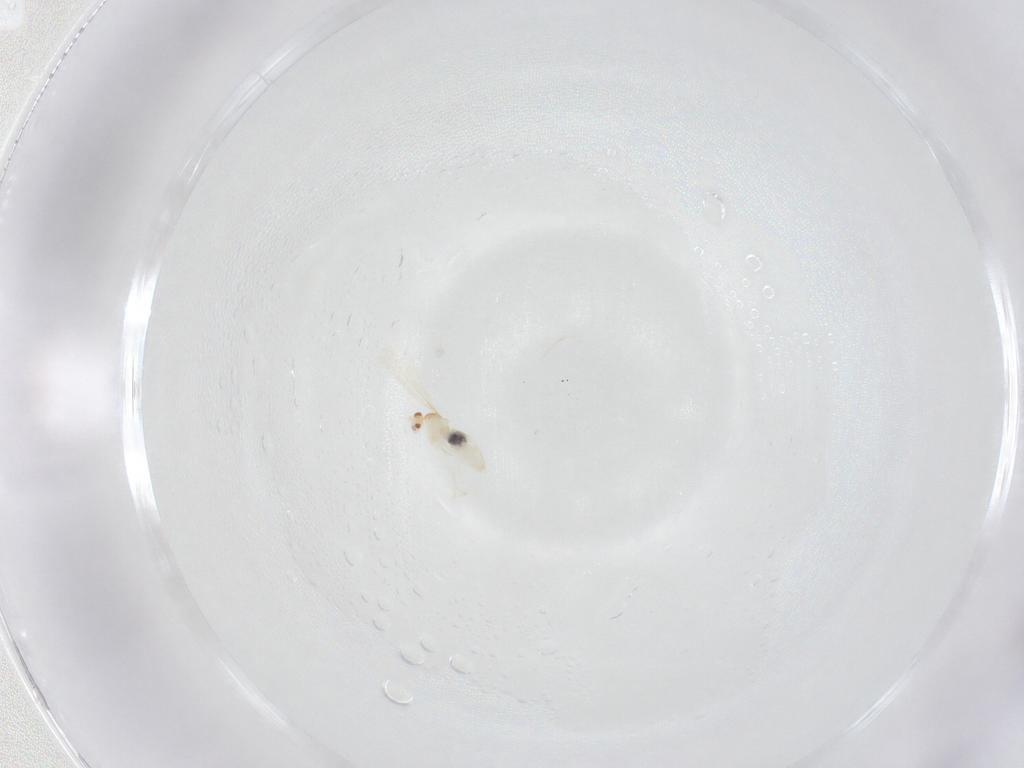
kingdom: Animalia
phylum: Arthropoda
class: Insecta
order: Diptera
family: Cecidomyiidae
